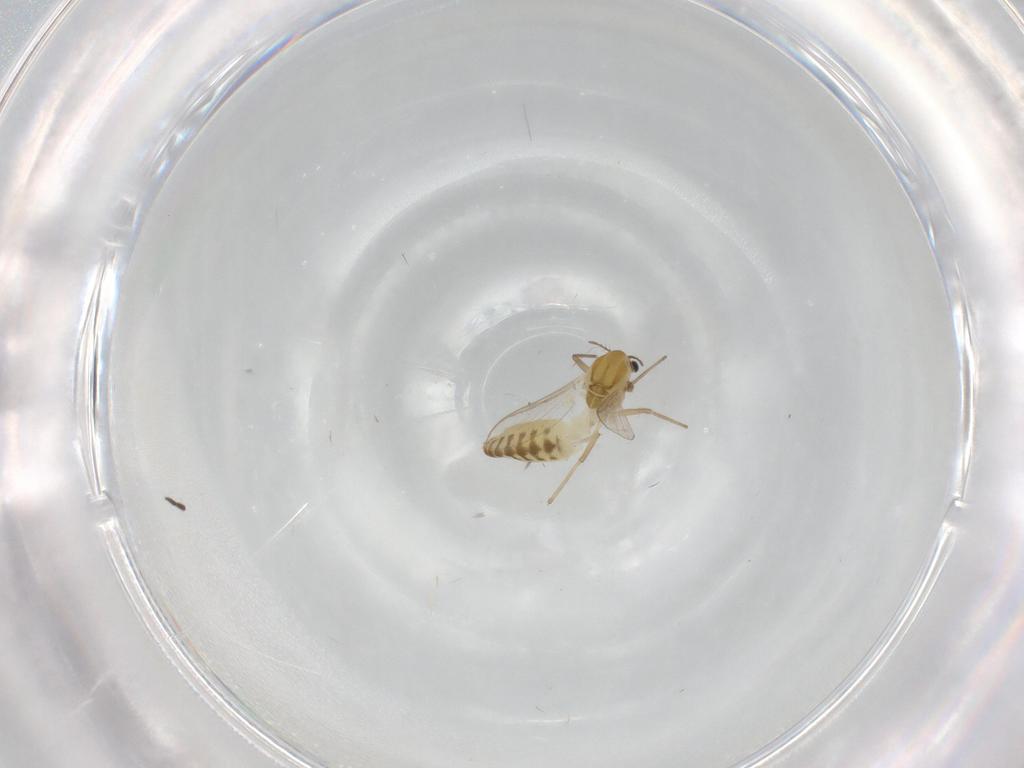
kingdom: Animalia
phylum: Arthropoda
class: Insecta
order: Diptera
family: Chironomidae
